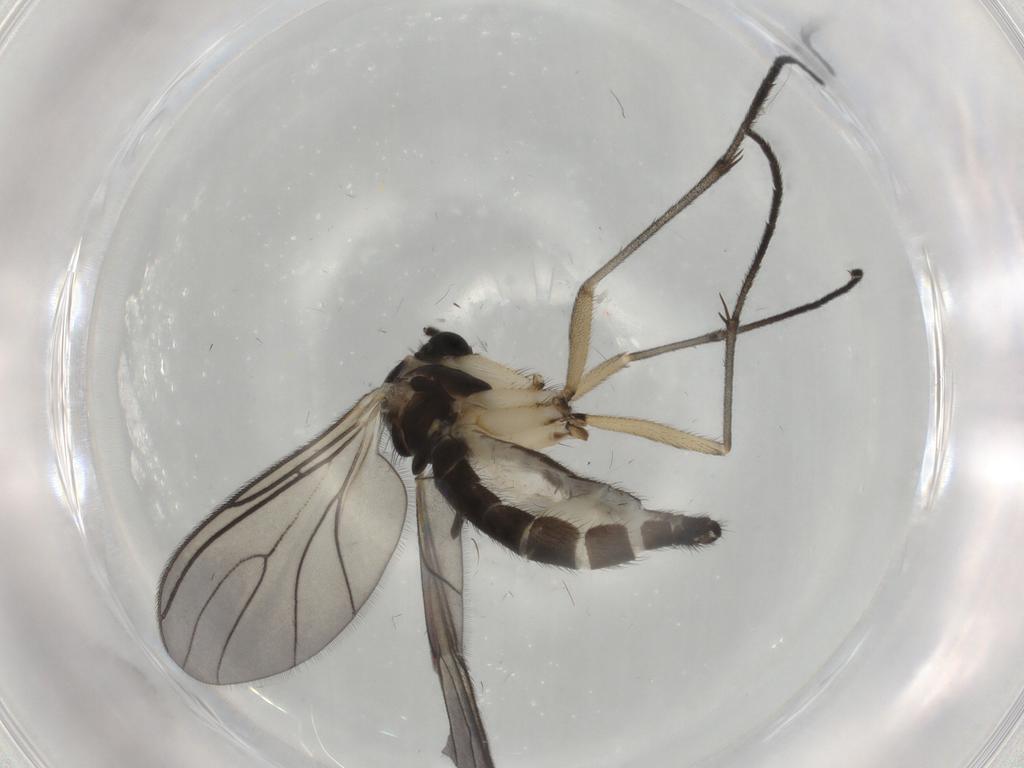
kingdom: Animalia
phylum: Arthropoda
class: Insecta
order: Diptera
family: Sciaridae
